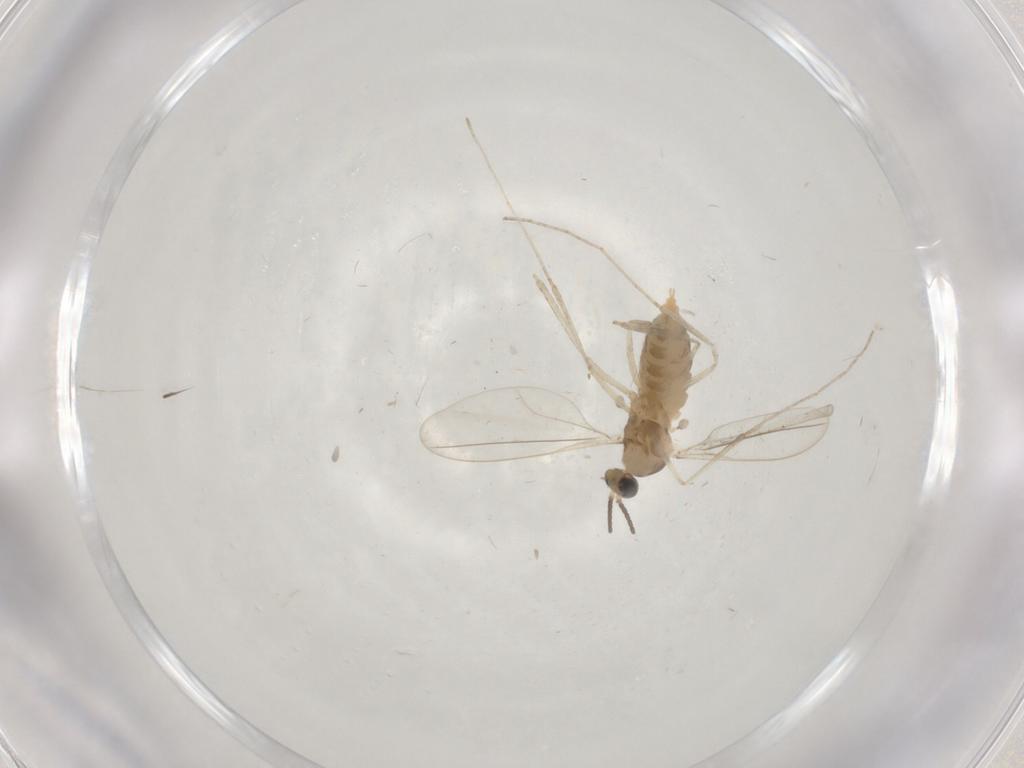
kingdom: Animalia
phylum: Arthropoda
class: Insecta
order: Diptera
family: Cecidomyiidae
